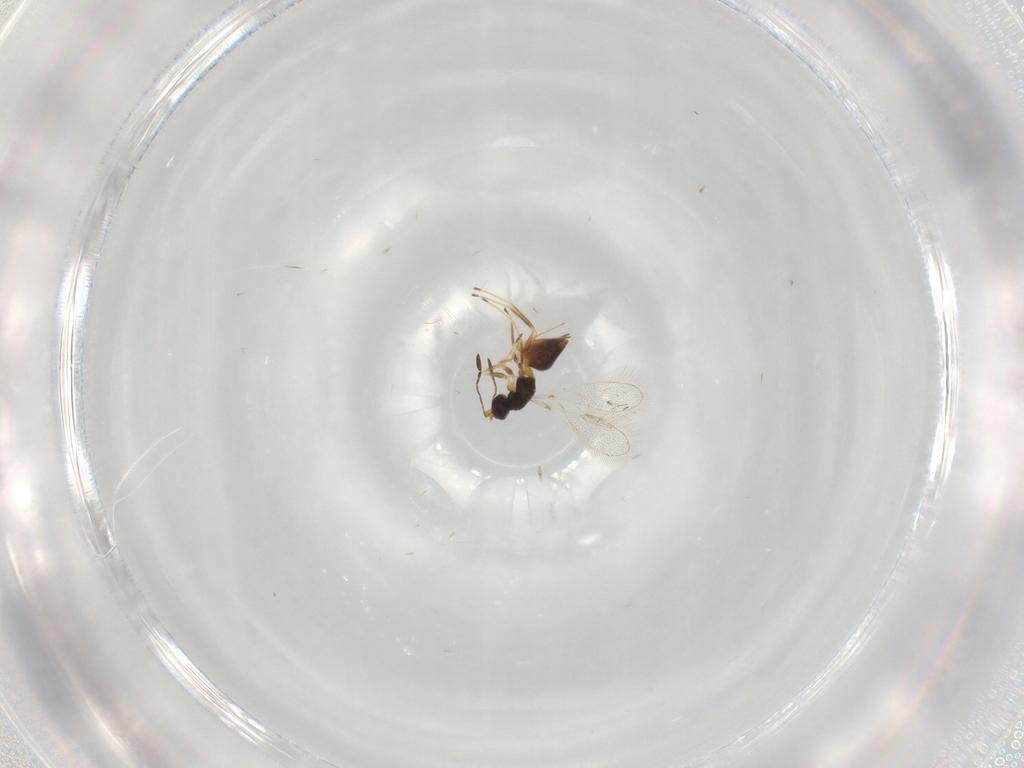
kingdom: Animalia
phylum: Arthropoda
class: Insecta
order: Hymenoptera
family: Mymaridae
